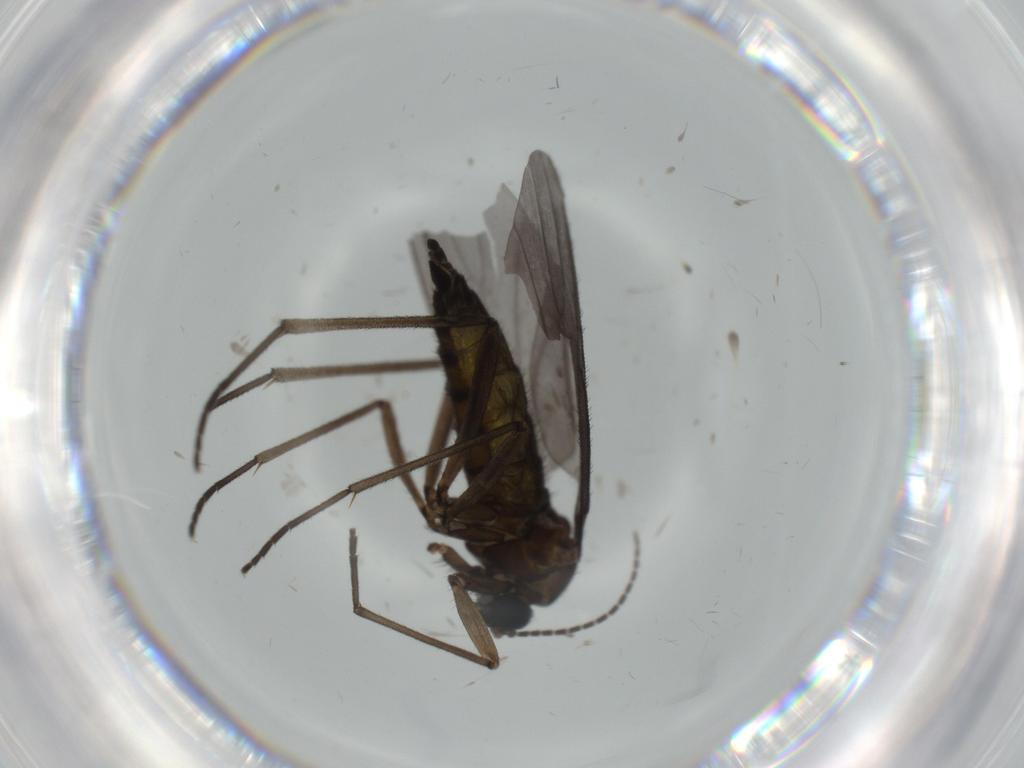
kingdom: Animalia
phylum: Arthropoda
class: Insecta
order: Diptera
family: Sciaridae
